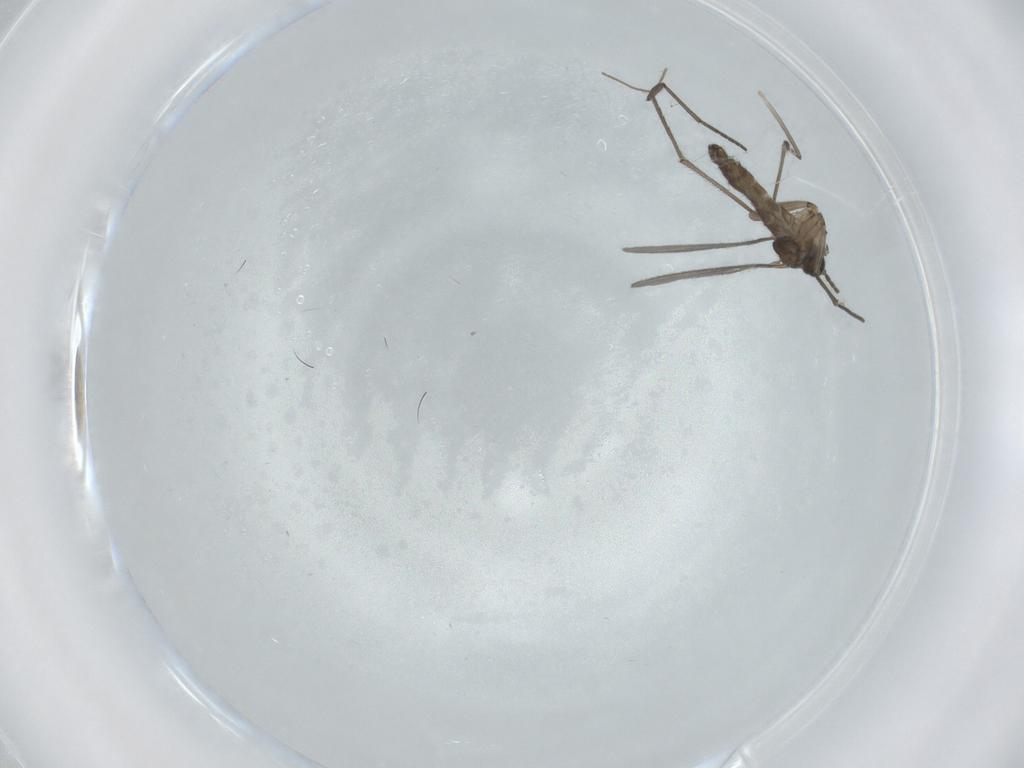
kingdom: Animalia
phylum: Arthropoda
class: Insecta
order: Diptera
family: Sciaridae
